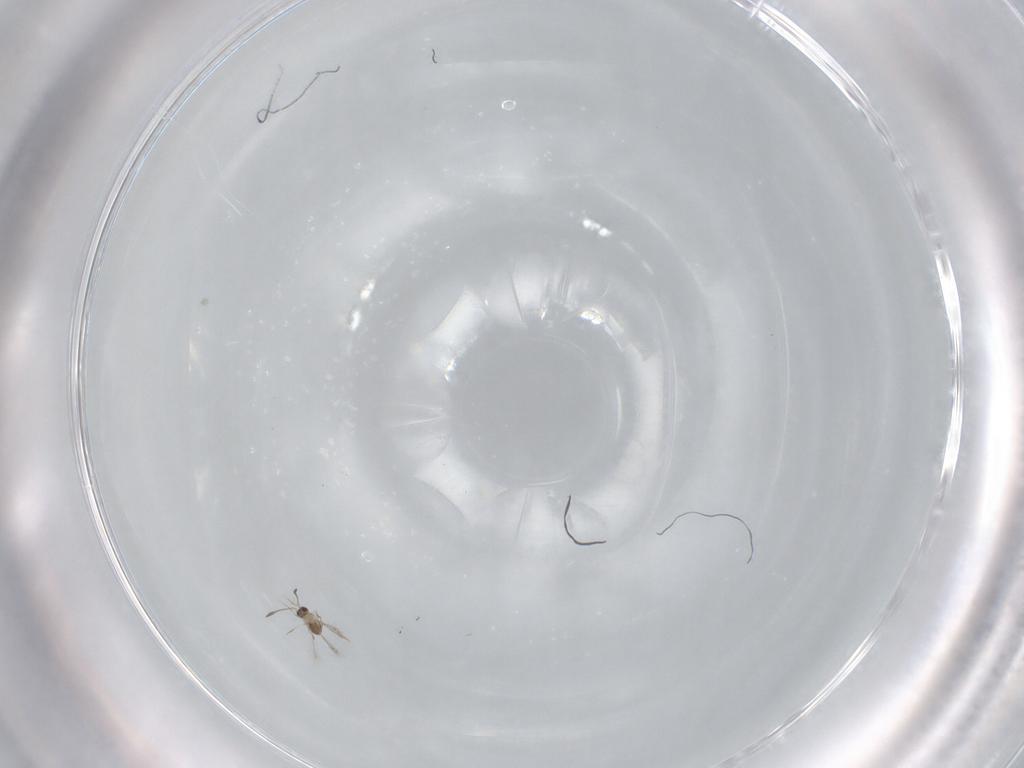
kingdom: Animalia
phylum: Arthropoda
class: Insecta
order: Hymenoptera
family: Mymaridae
